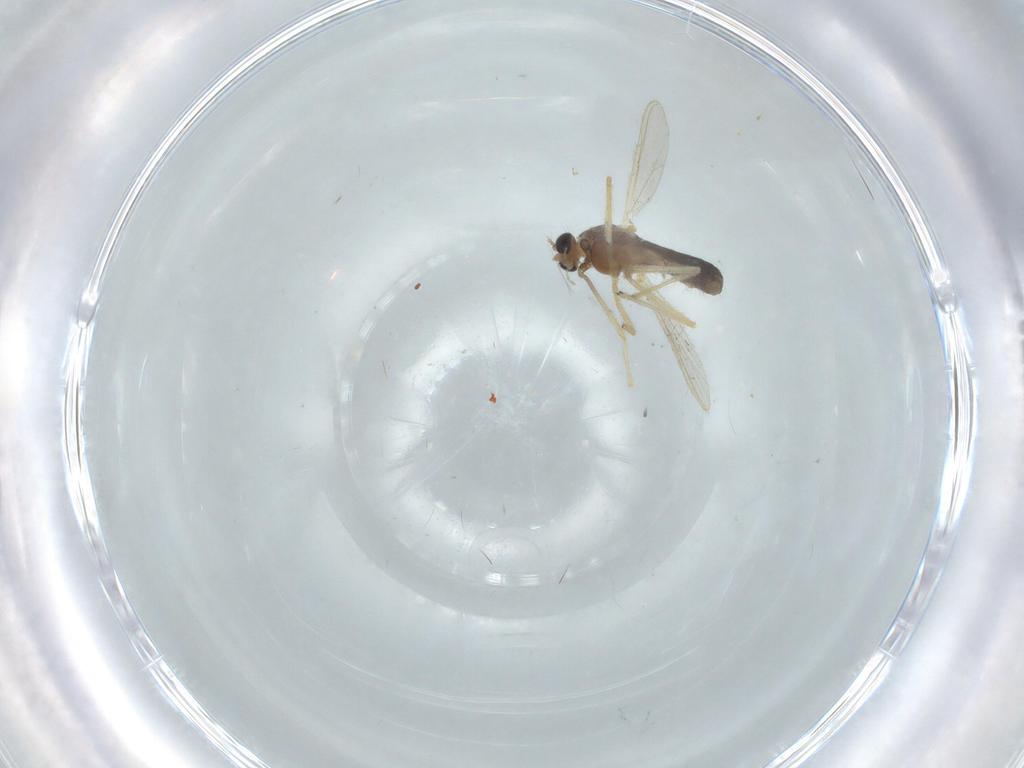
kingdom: Animalia
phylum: Arthropoda
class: Insecta
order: Diptera
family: Chironomidae
